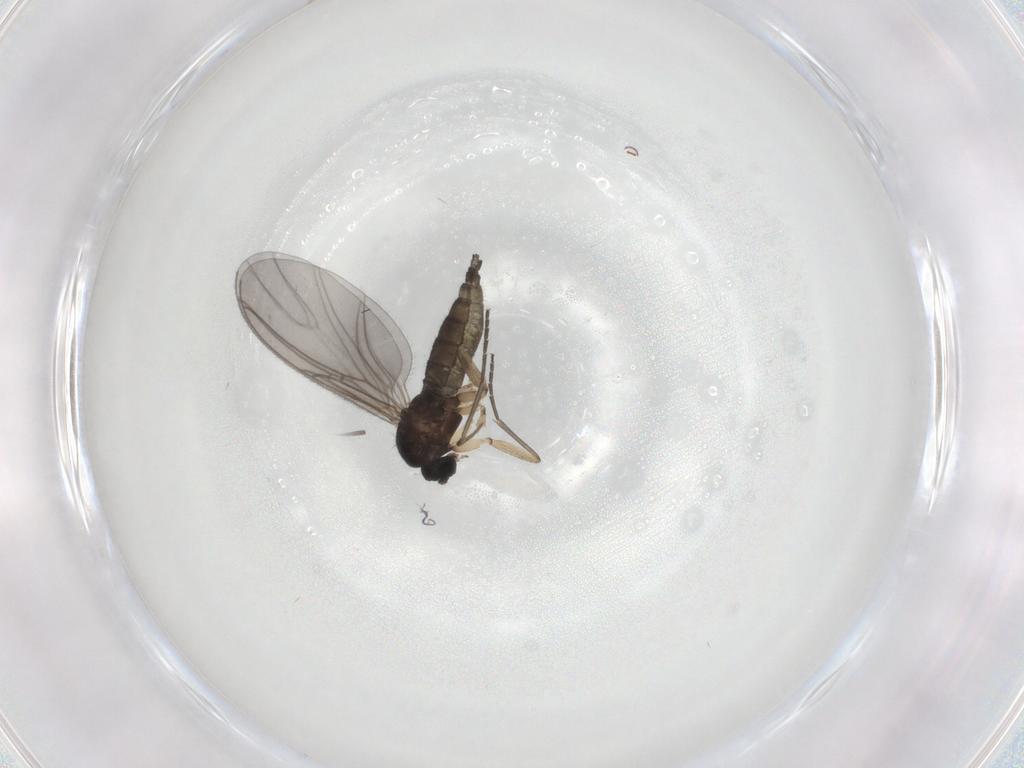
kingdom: Animalia
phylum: Arthropoda
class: Insecta
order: Diptera
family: Sciaridae
